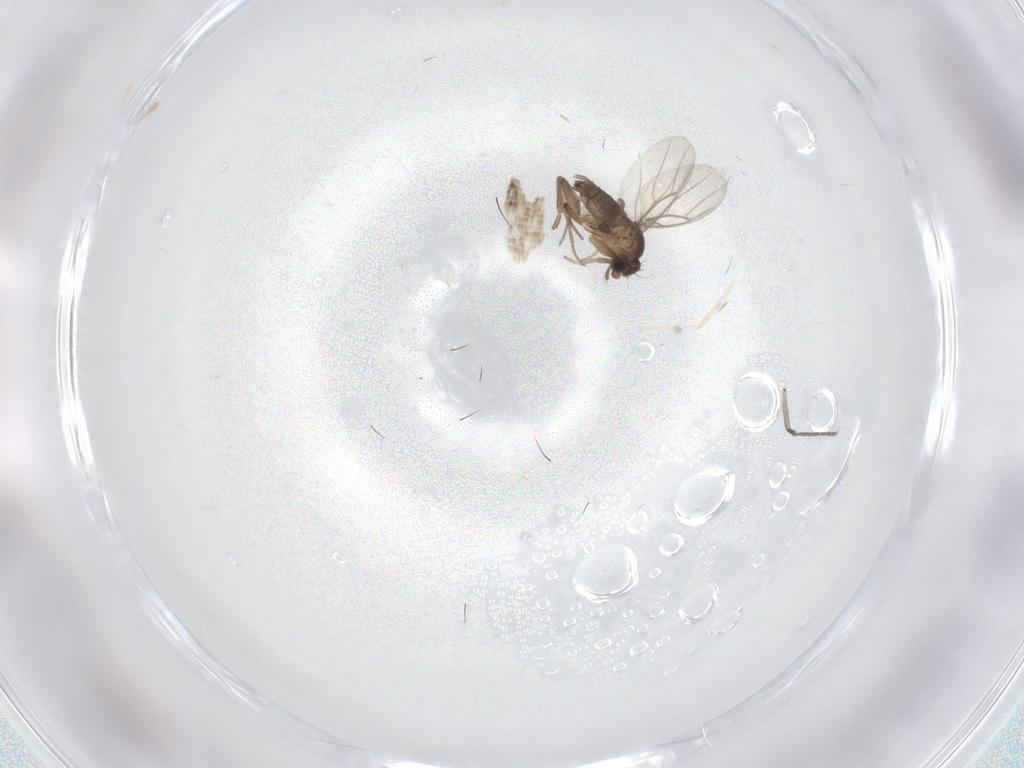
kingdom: Animalia
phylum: Arthropoda
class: Insecta
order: Diptera
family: Sciaridae
